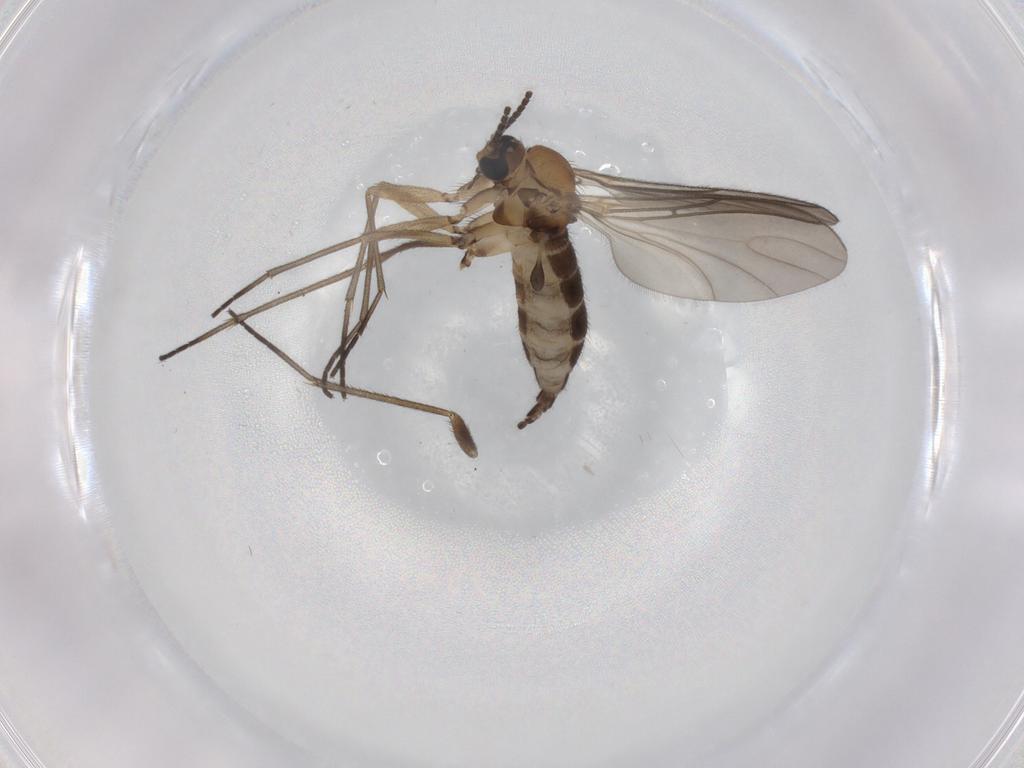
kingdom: Animalia
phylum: Arthropoda
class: Insecta
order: Diptera
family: Sciaridae
